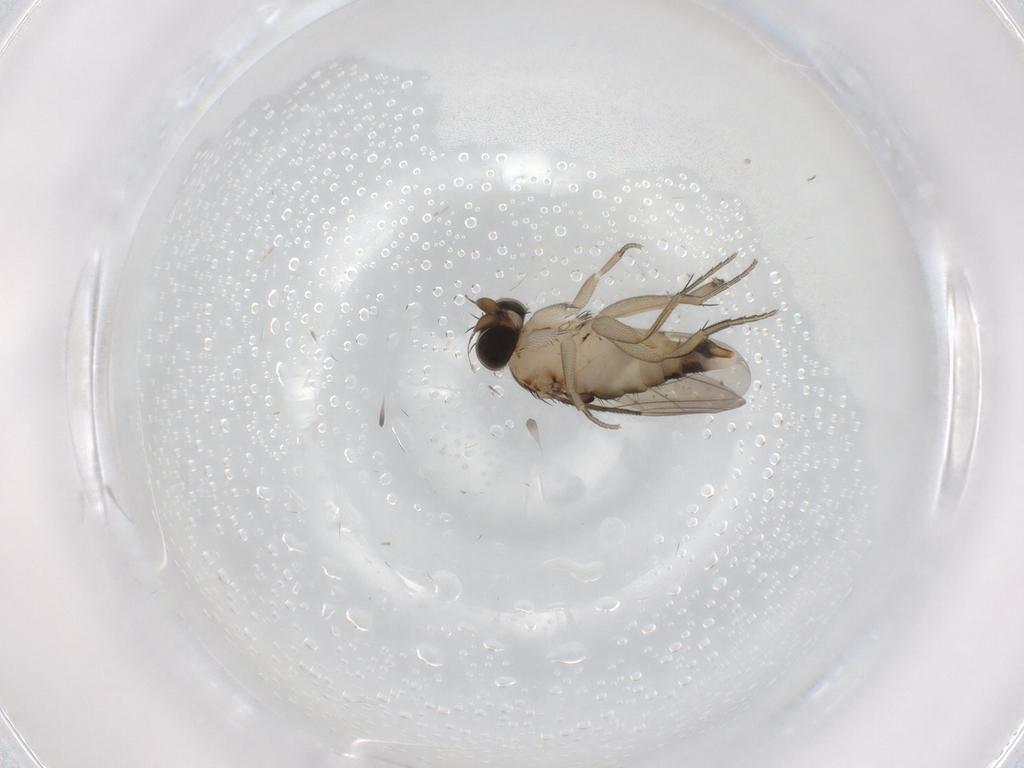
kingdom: Animalia
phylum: Arthropoda
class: Insecta
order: Diptera
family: Phoridae
